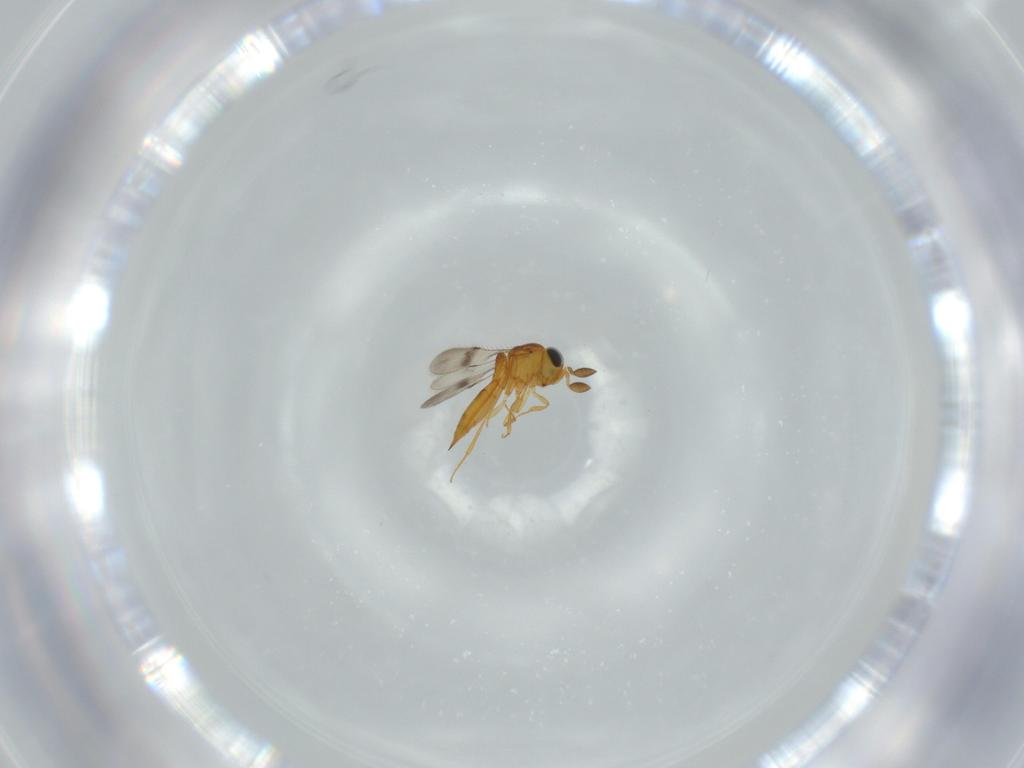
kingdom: Animalia
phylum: Arthropoda
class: Insecta
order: Hymenoptera
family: Scelionidae
